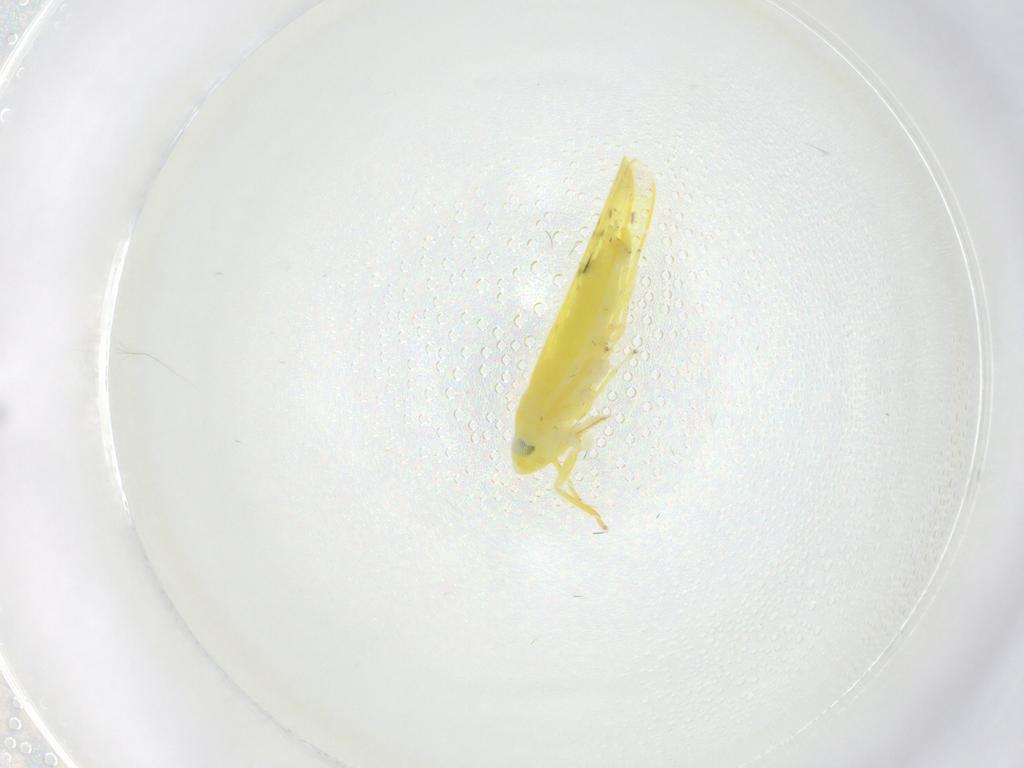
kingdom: Animalia
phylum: Arthropoda
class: Insecta
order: Hemiptera
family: Cicadellidae
